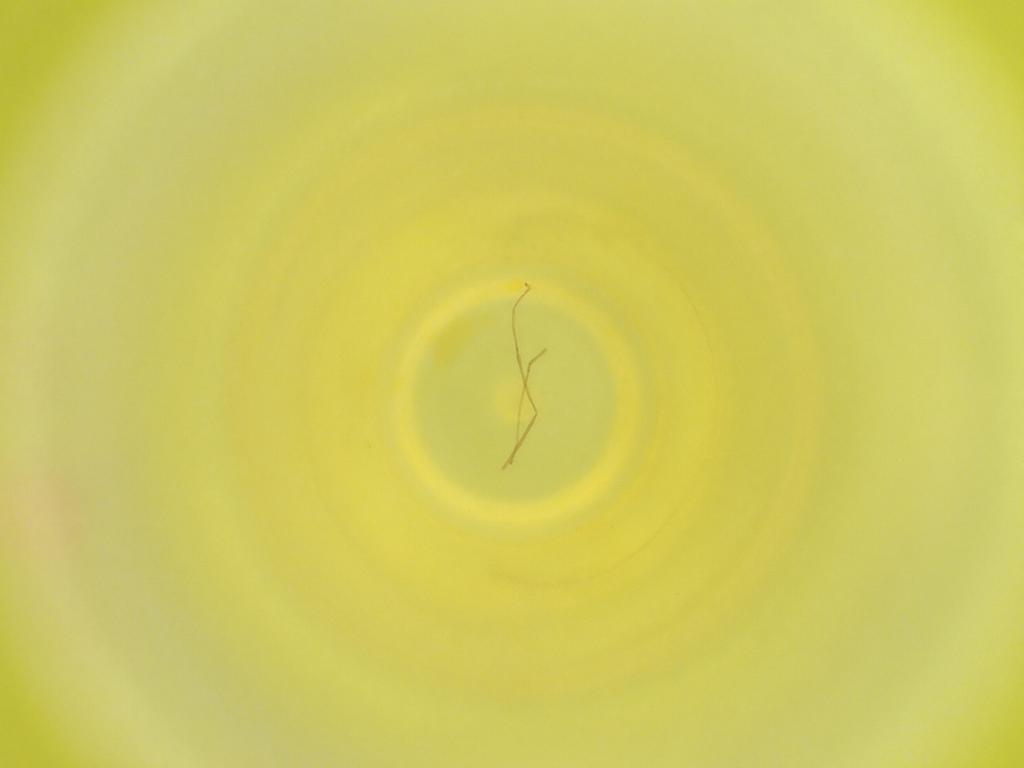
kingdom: Animalia
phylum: Arthropoda
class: Insecta
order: Diptera
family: Cecidomyiidae
